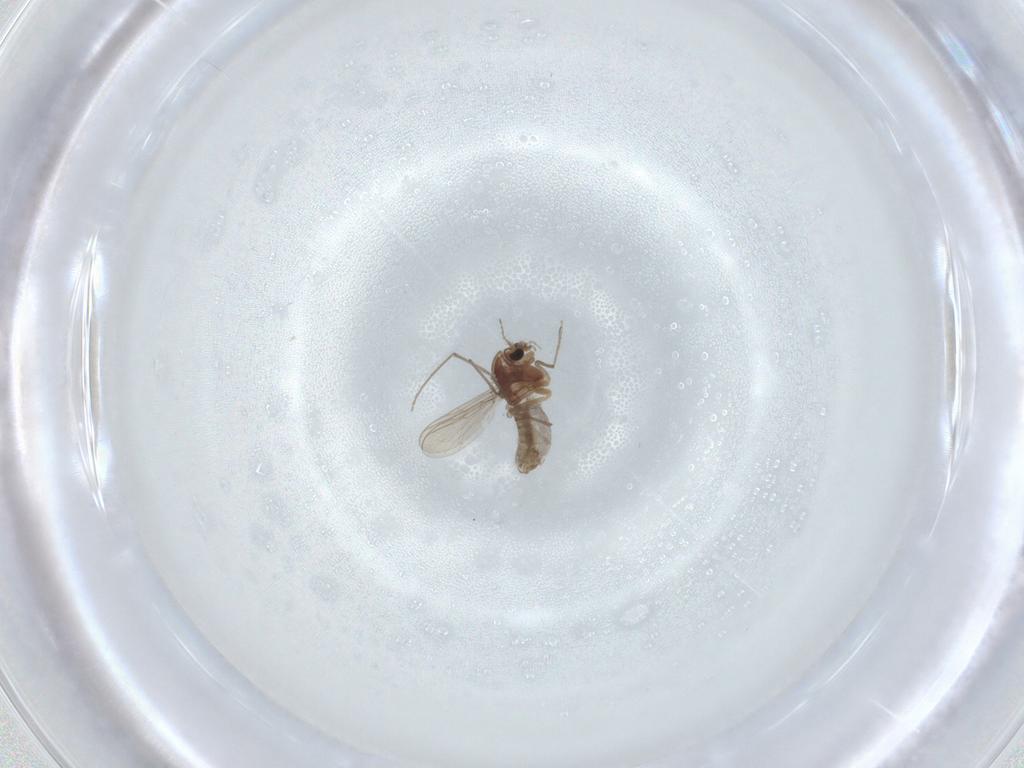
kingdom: Animalia
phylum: Arthropoda
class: Insecta
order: Diptera
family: Chironomidae
